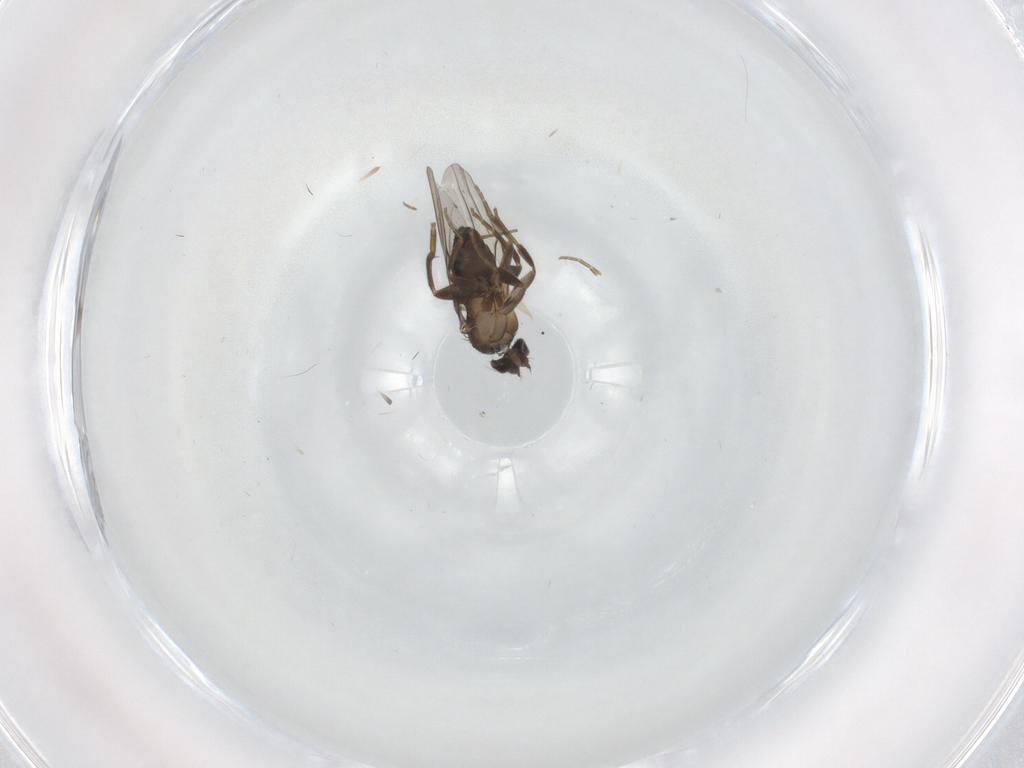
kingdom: Animalia
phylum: Arthropoda
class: Insecta
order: Diptera
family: Phoridae
